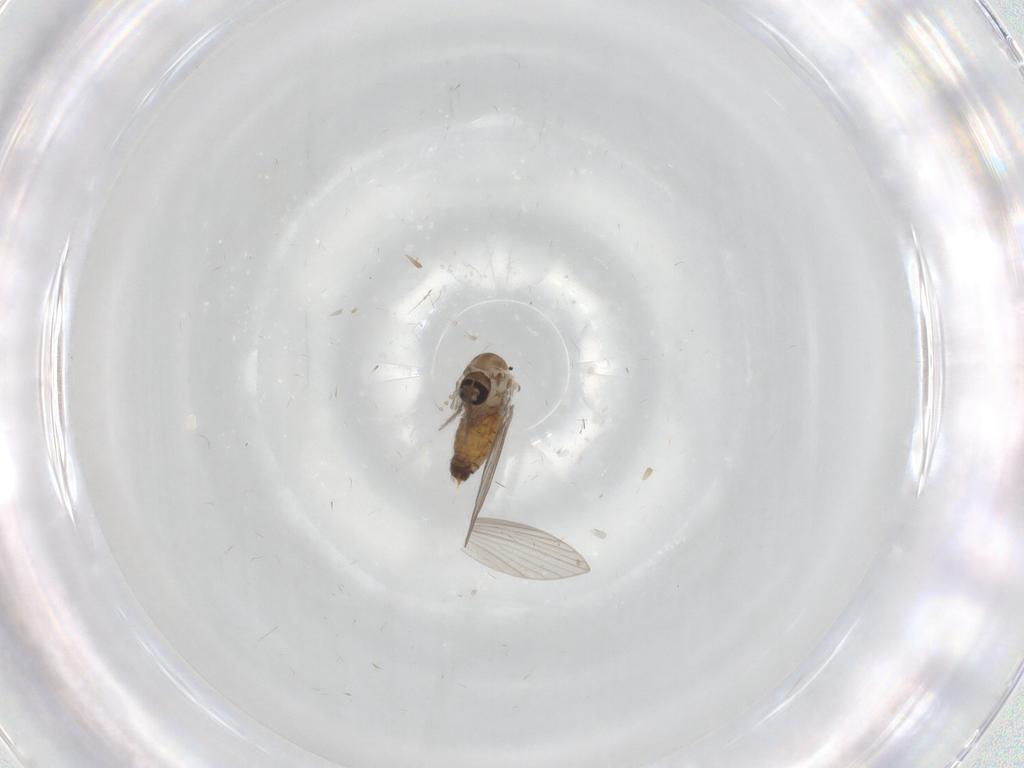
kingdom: Animalia
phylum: Arthropoda
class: Insecta
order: Diptera
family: Psychodidae
